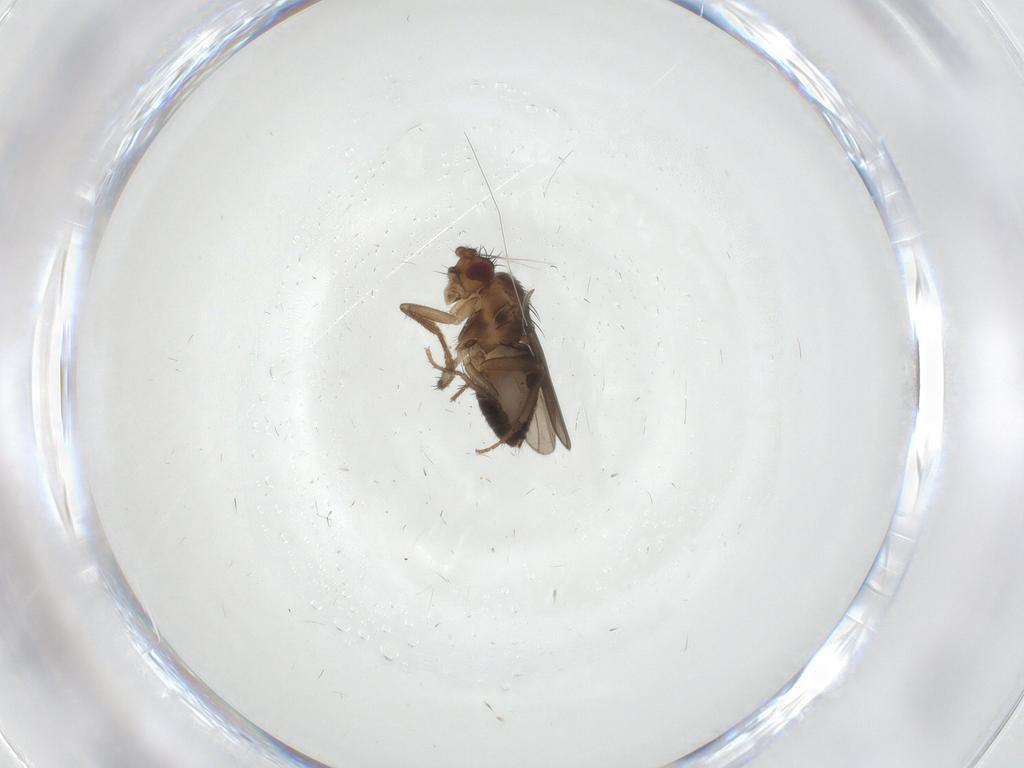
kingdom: Animalia
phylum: Arthropoda
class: Insecta
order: Diptera
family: Sphaeroceridae
